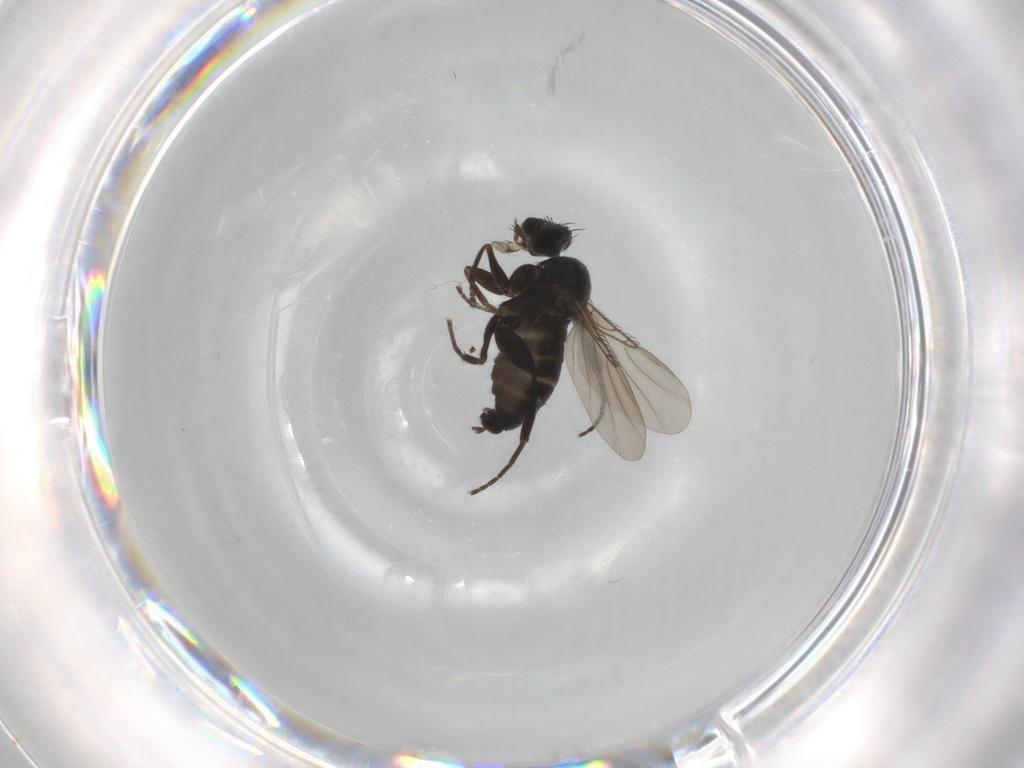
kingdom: Animalia
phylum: Arthropoda
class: Insecta
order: Diptera
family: Phoridae
